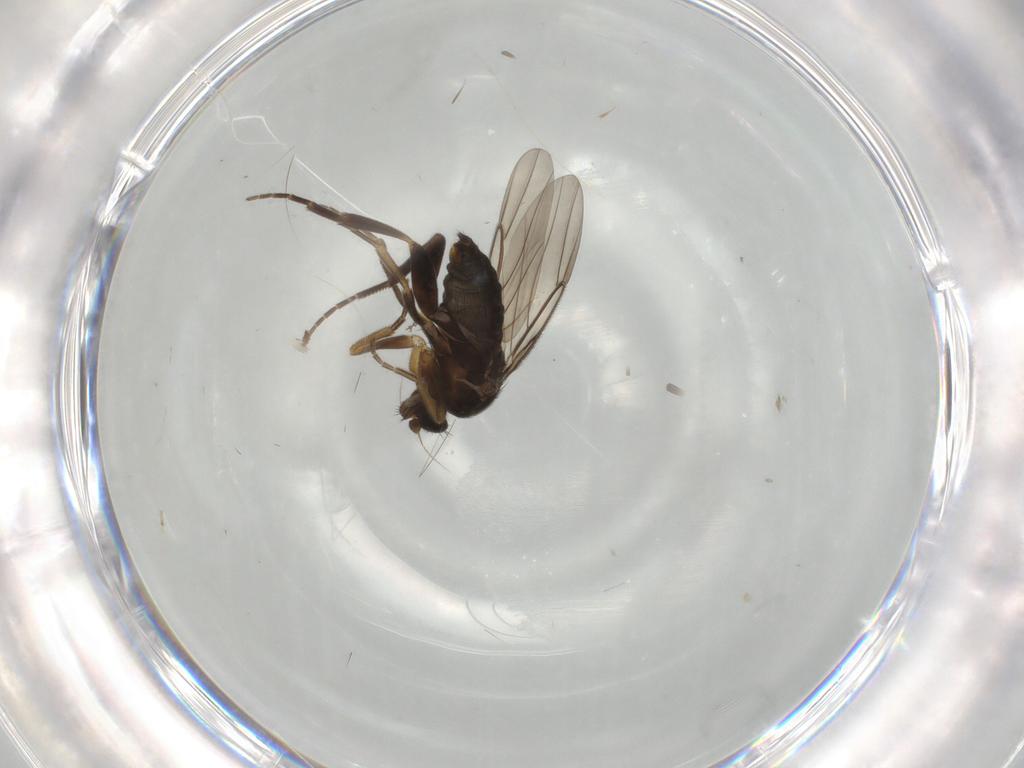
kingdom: Animalia
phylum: Arthropoda
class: Insecta
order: Diptera
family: Phoridae
